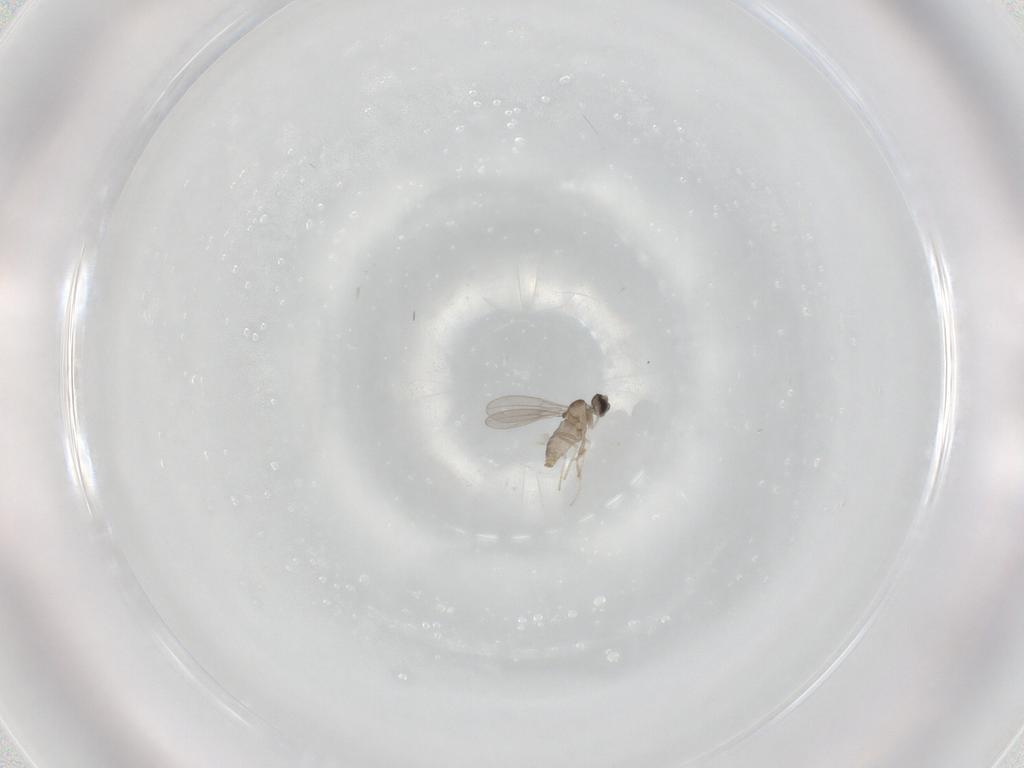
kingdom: Animalia
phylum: Arthropoda
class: Insecta
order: Diptera
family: Cecidomyiidae
